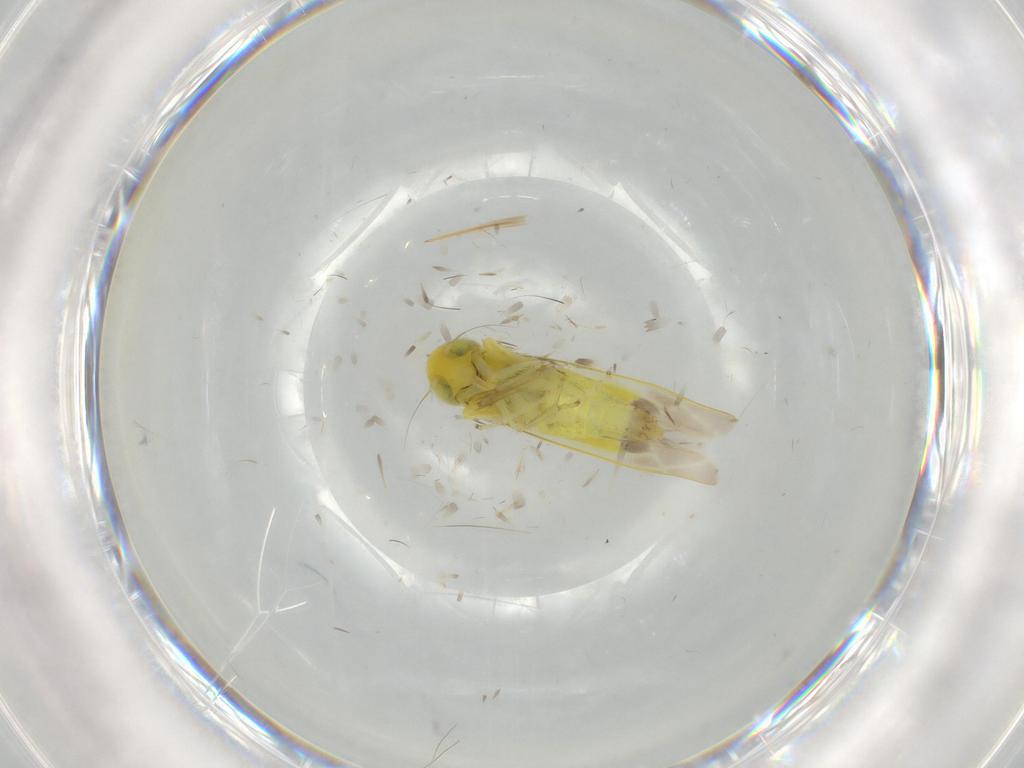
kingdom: Animalia
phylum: Arthropoda
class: Insecta
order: Hemiptera
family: Cicadellidae
